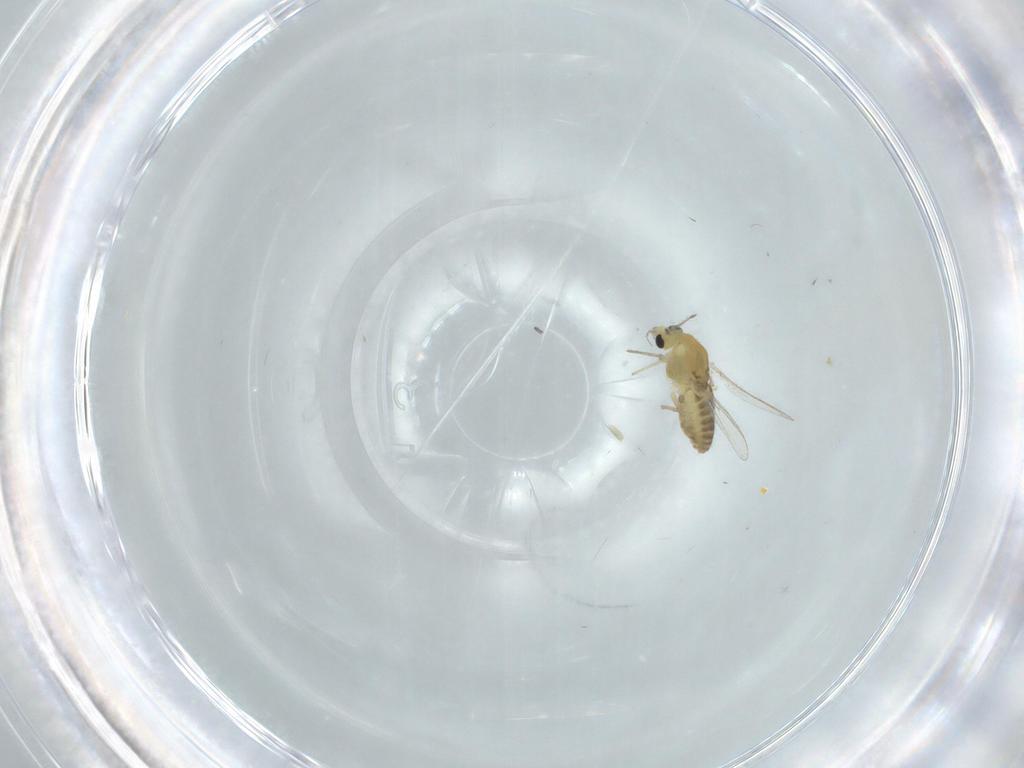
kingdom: Animalia
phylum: Arthropoda
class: Insecta
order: Diptera
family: Chironomidae
